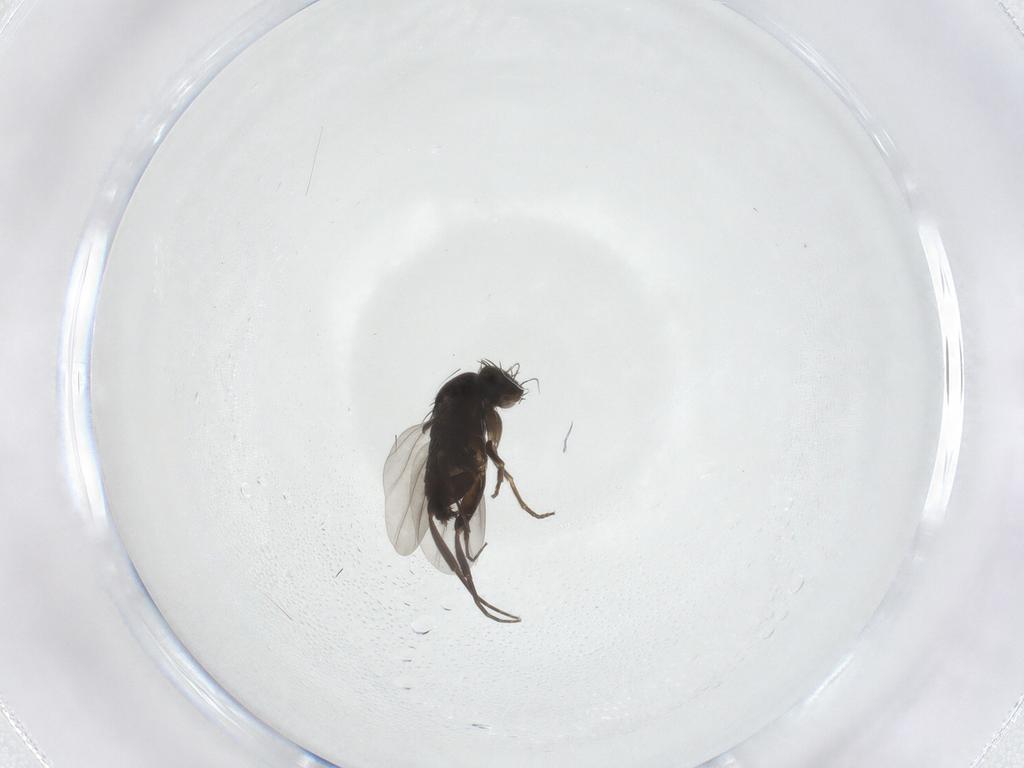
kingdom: Animalia
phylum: Arthropoda
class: Insecta
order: Diptera
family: Phoridae
